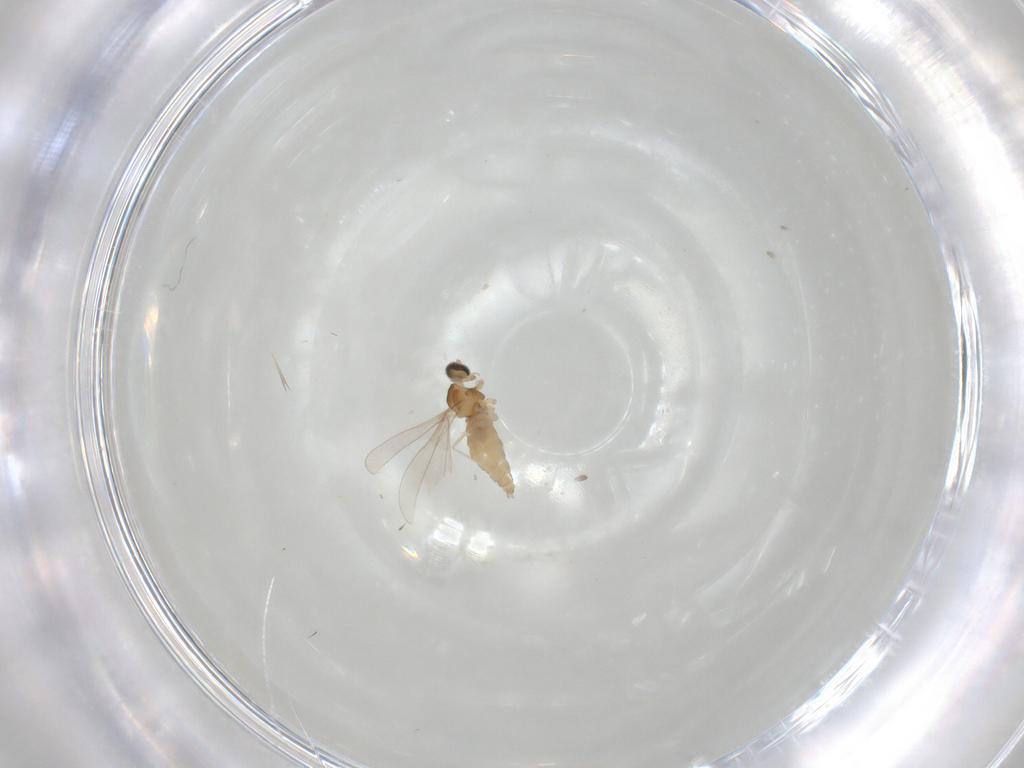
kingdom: Animalia
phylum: Arthropoda
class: Insecta
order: Diptera
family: Cecidomyiidae
